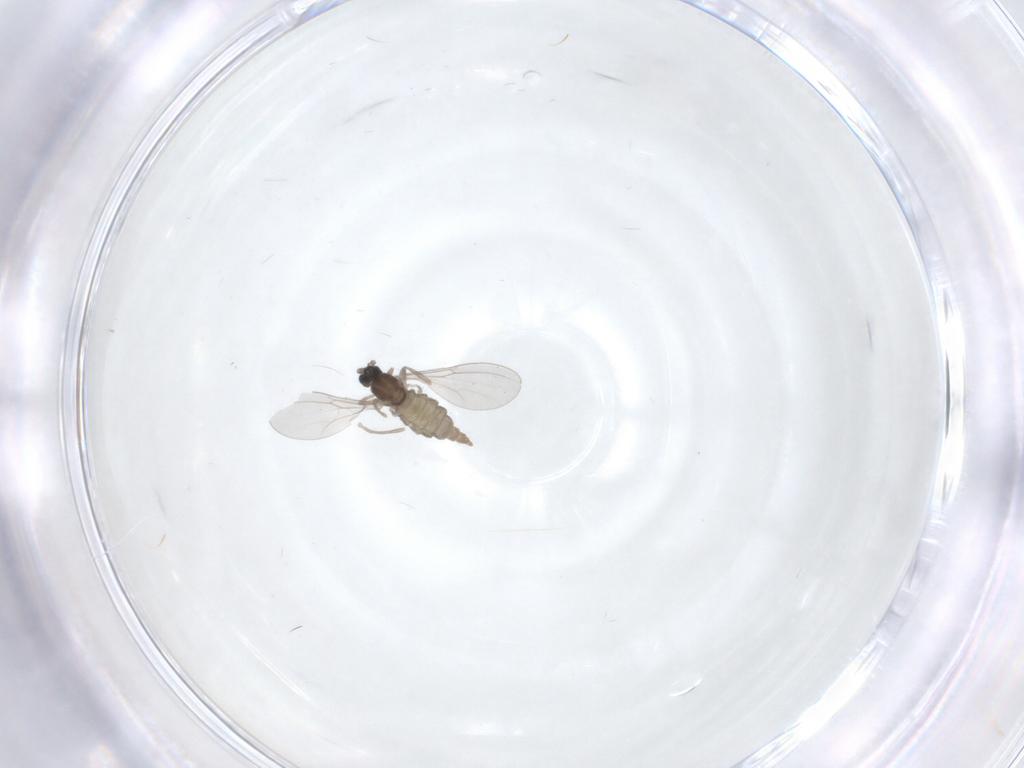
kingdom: Animalia
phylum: Arthropoda
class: Insecta
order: Diptera
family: Cecidomyiidae
